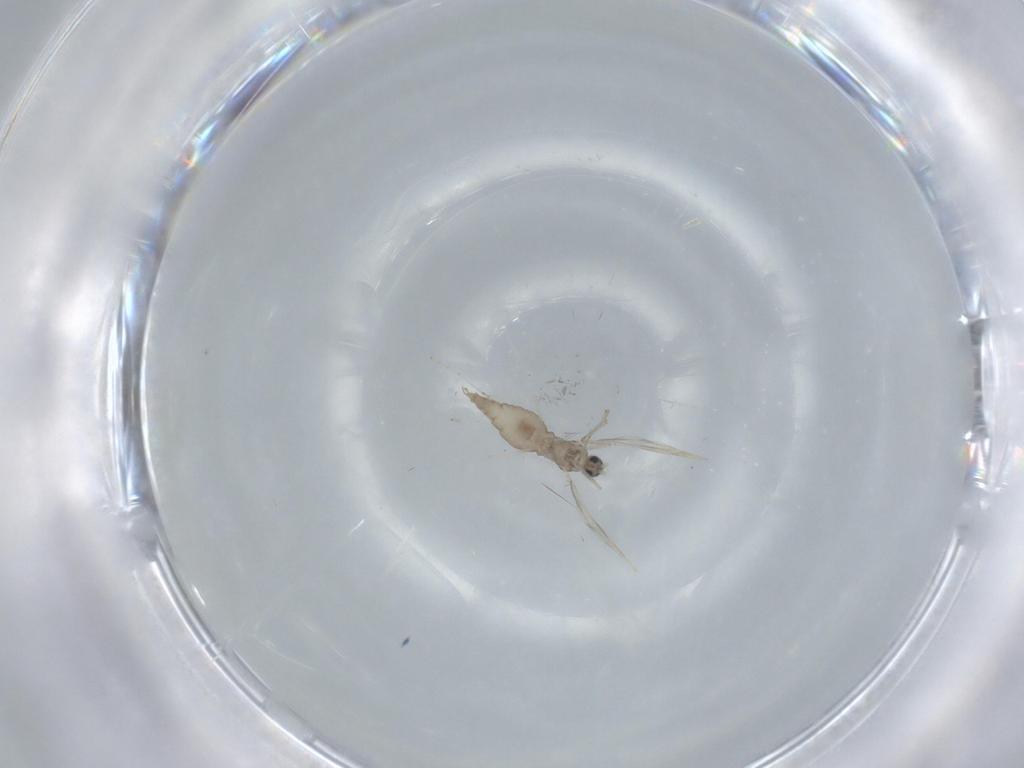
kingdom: Animalia
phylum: Arthropoda
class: Insecta
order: Diptera
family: Cecidomyiidae
